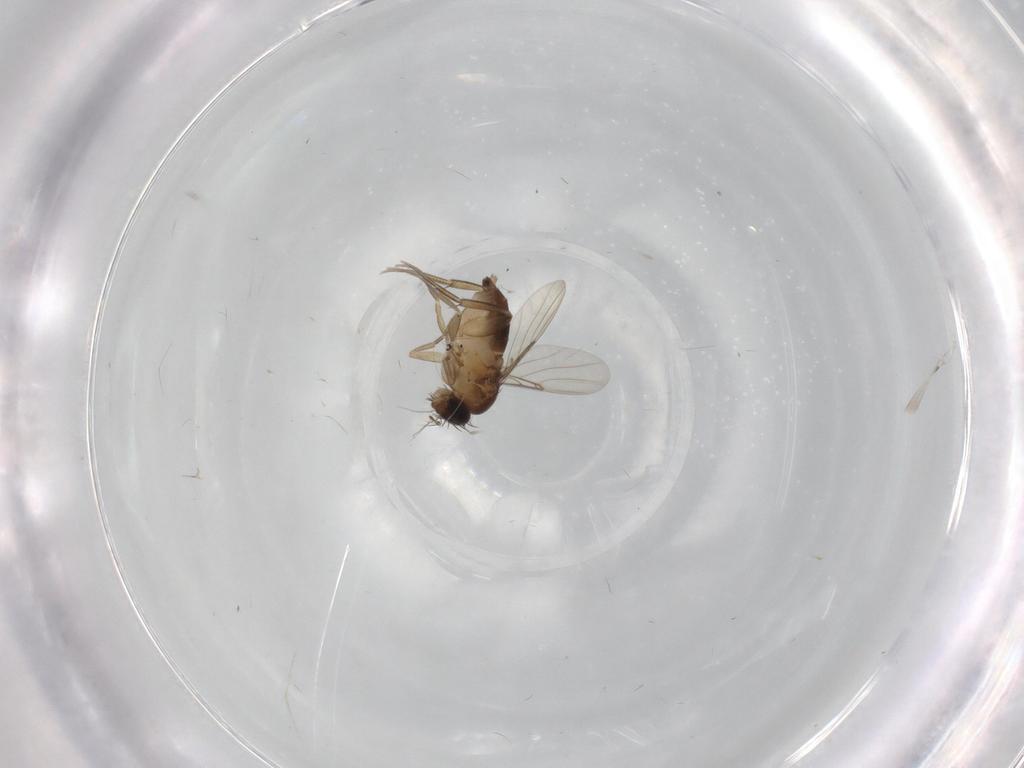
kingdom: Animalia
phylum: Arthropoda
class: Insecta
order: Diptera
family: Phoridae
